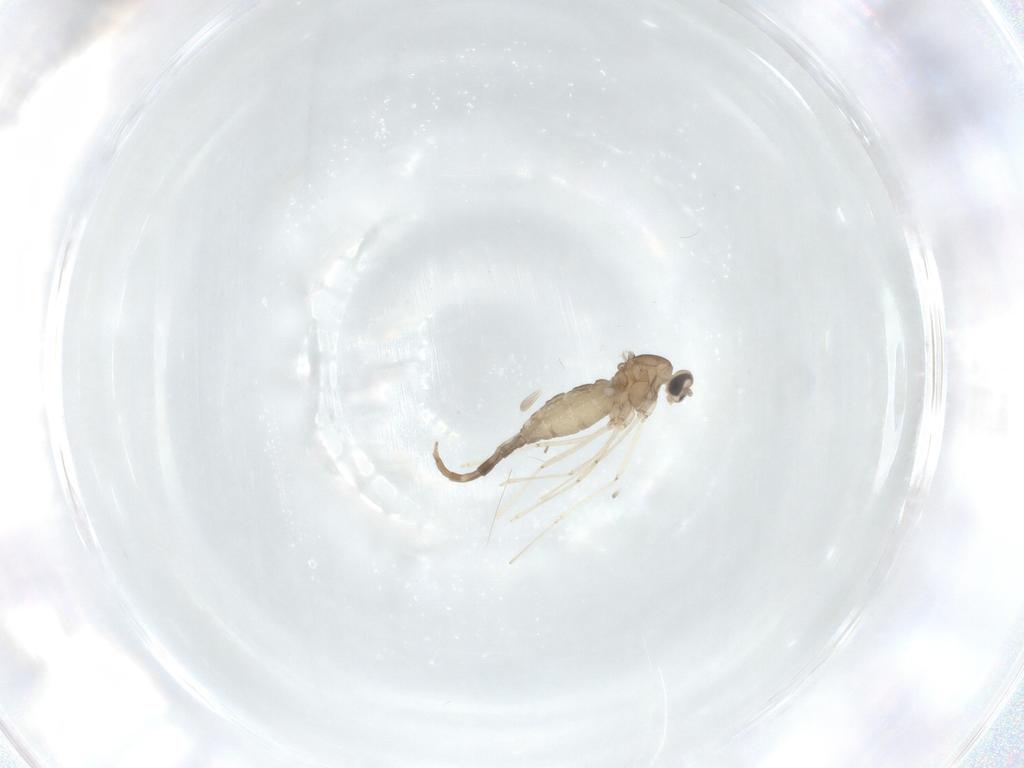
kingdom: Animalia
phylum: Arthropoda
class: Insecta
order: Diptera
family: Cecidomyiidae
